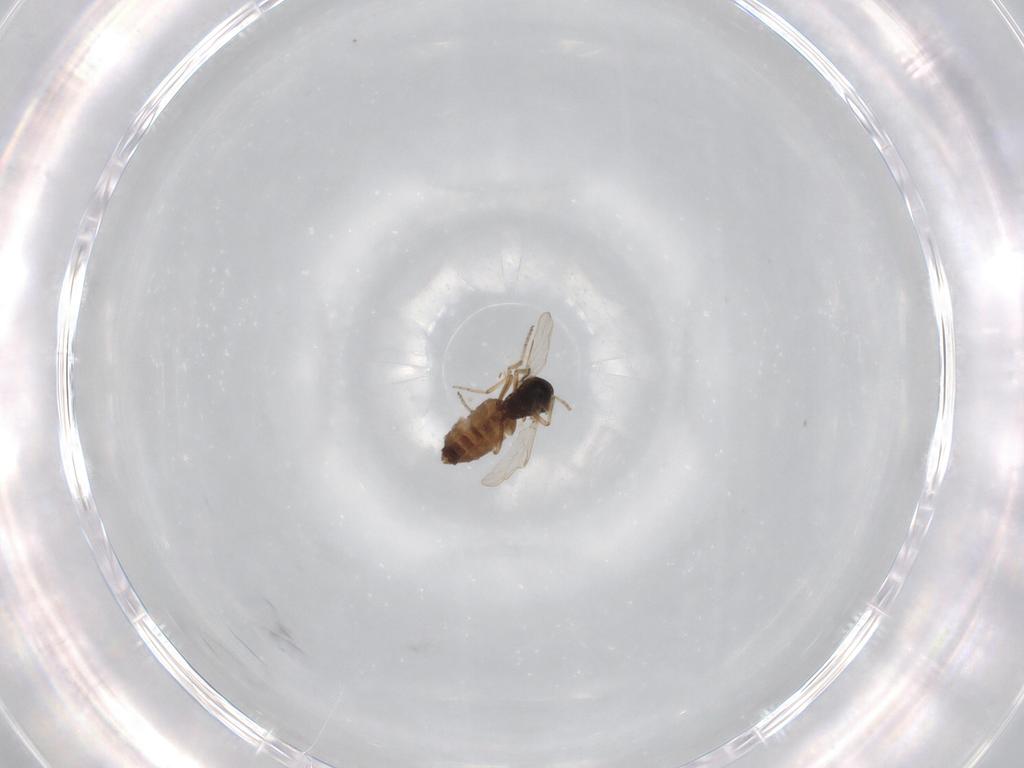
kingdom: Animalia
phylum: Arthropoda
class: Insecta
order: Diptera
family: Ceratopogonidae
